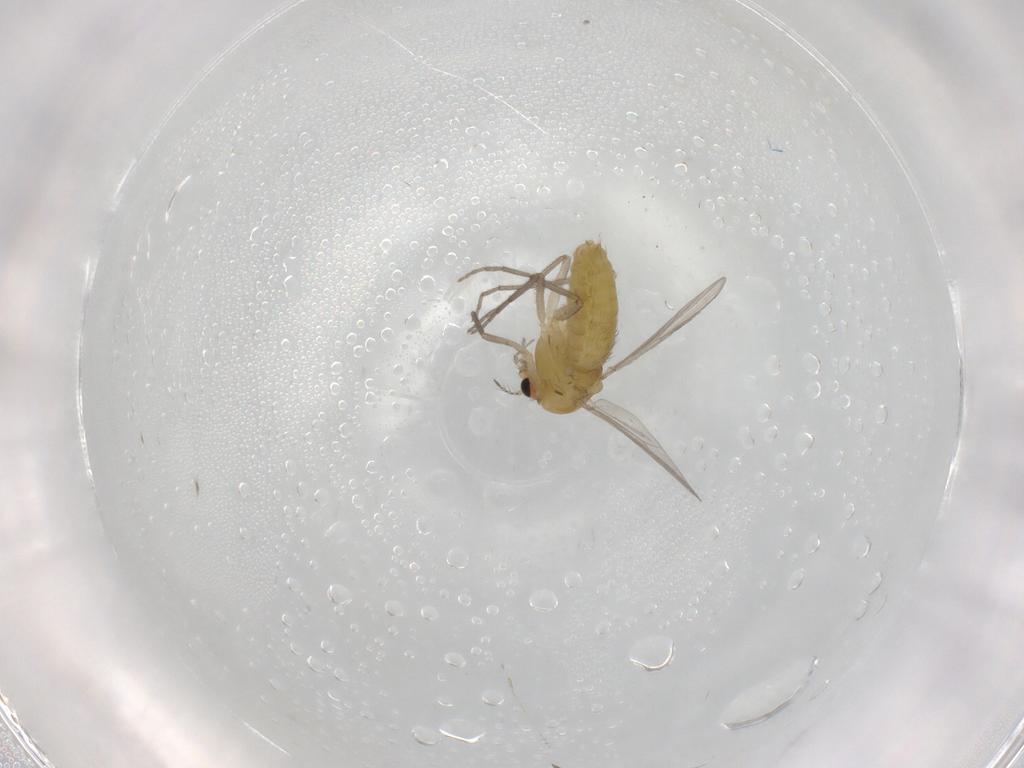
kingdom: Animalia
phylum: Arthropoda
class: Insecta
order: Diptera
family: Chironomidae
